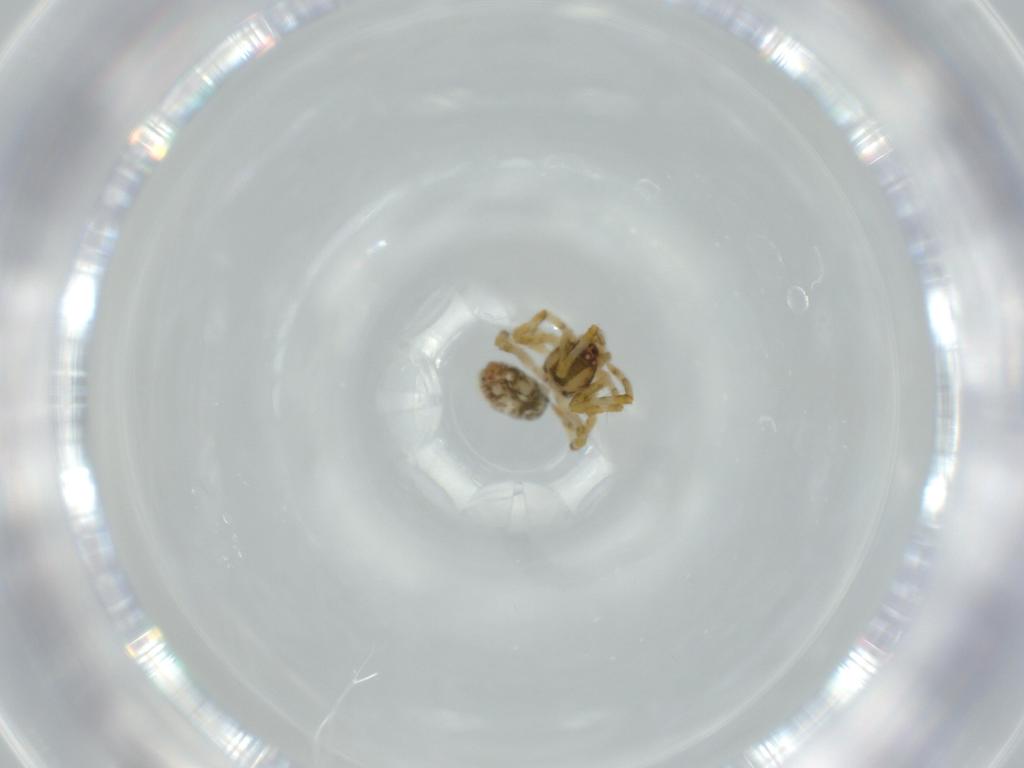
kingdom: Animalia
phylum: Arthropoda
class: Arachnida
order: Araneae
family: Theridiidae
